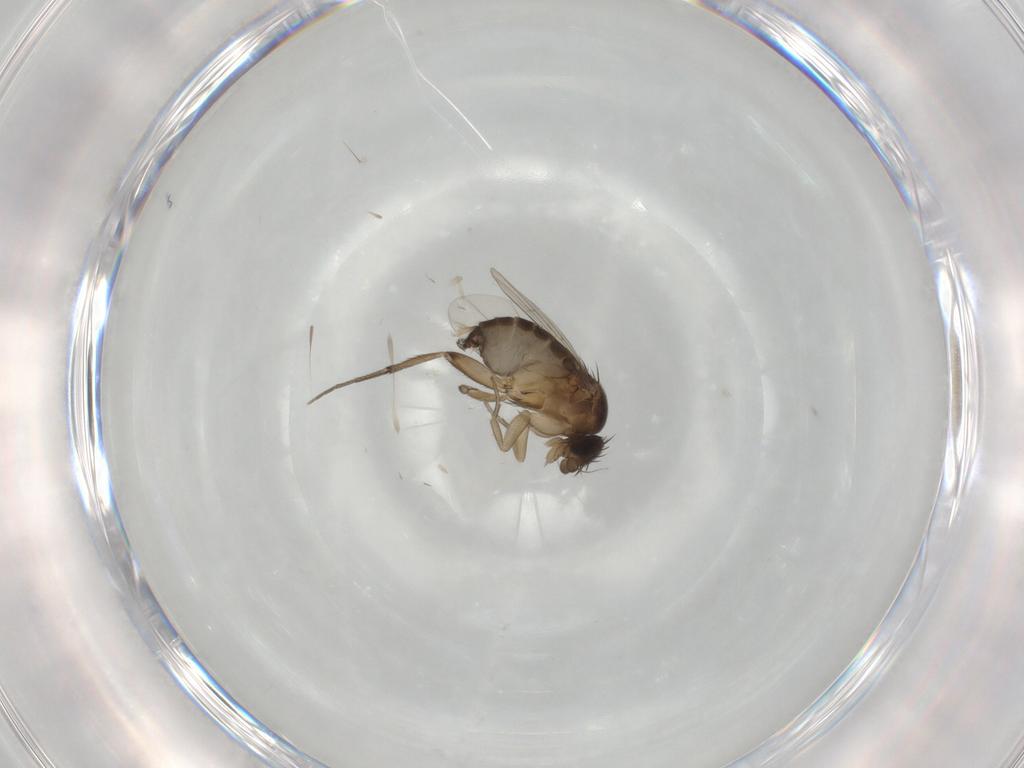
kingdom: Animalia
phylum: Arthropoda
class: Insecta
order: Diptera
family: Phoridae
